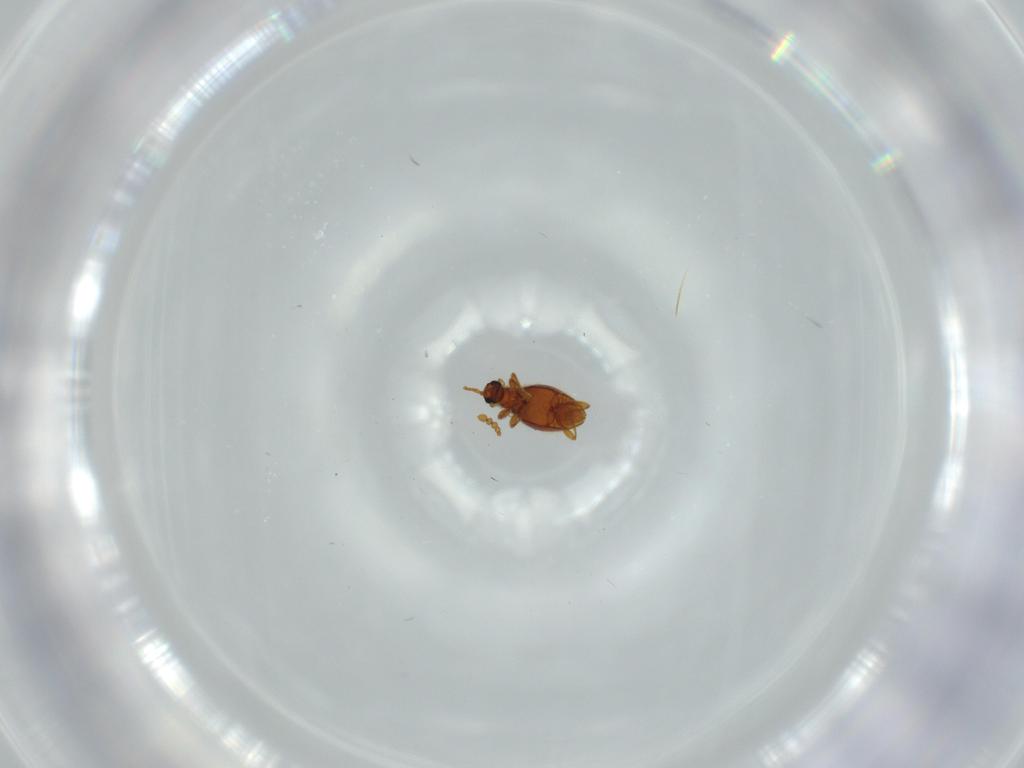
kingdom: Animalia
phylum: Arthropoda
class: Insecta
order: Coleoptera
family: Staphylinidae
